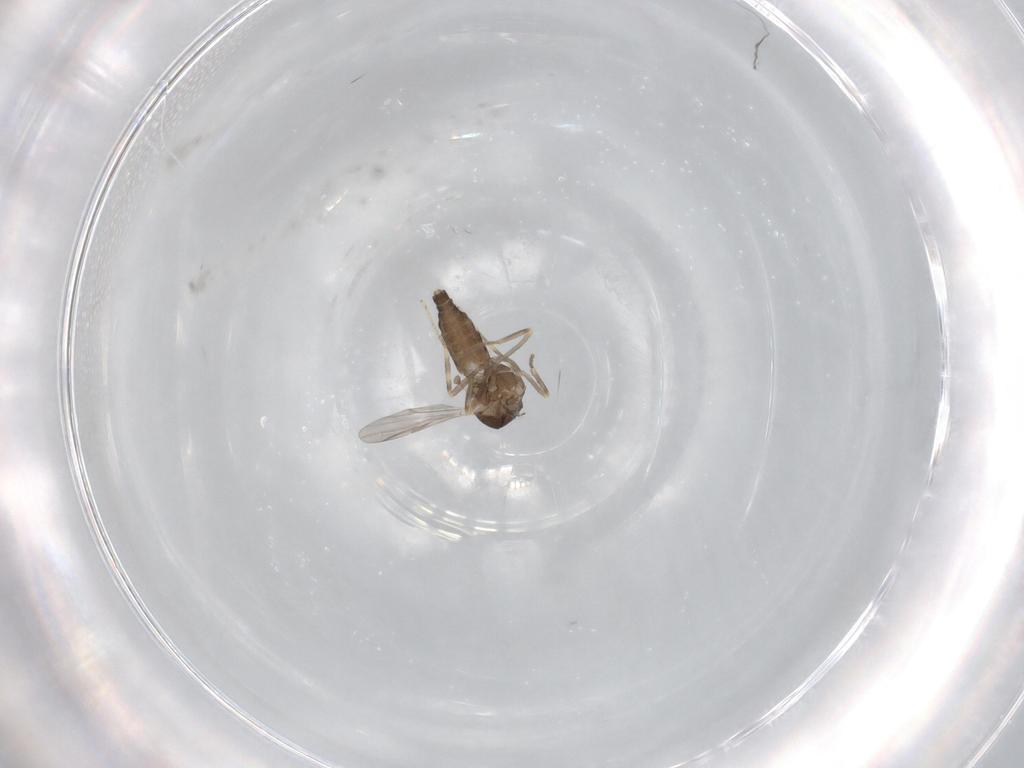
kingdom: Animalia
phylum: Arthropoda
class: Insecta
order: Diptera
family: Ceratopogonidae
